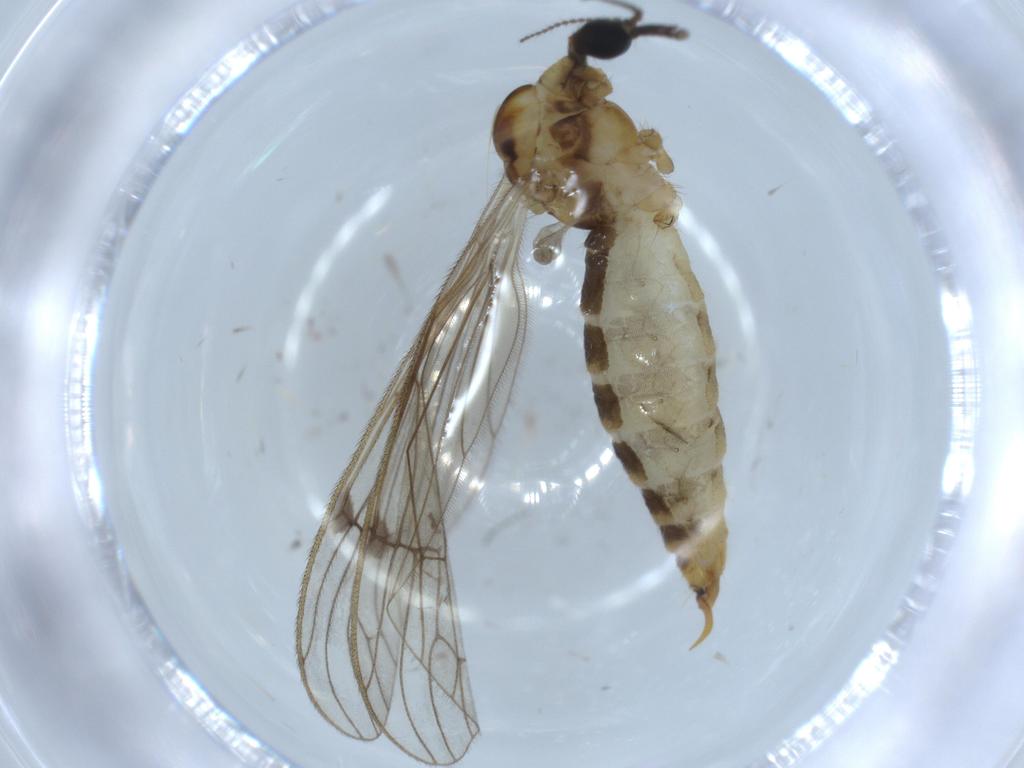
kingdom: Animalia
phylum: Arthropoda
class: Insecta
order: Diptera
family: Limoniidae
